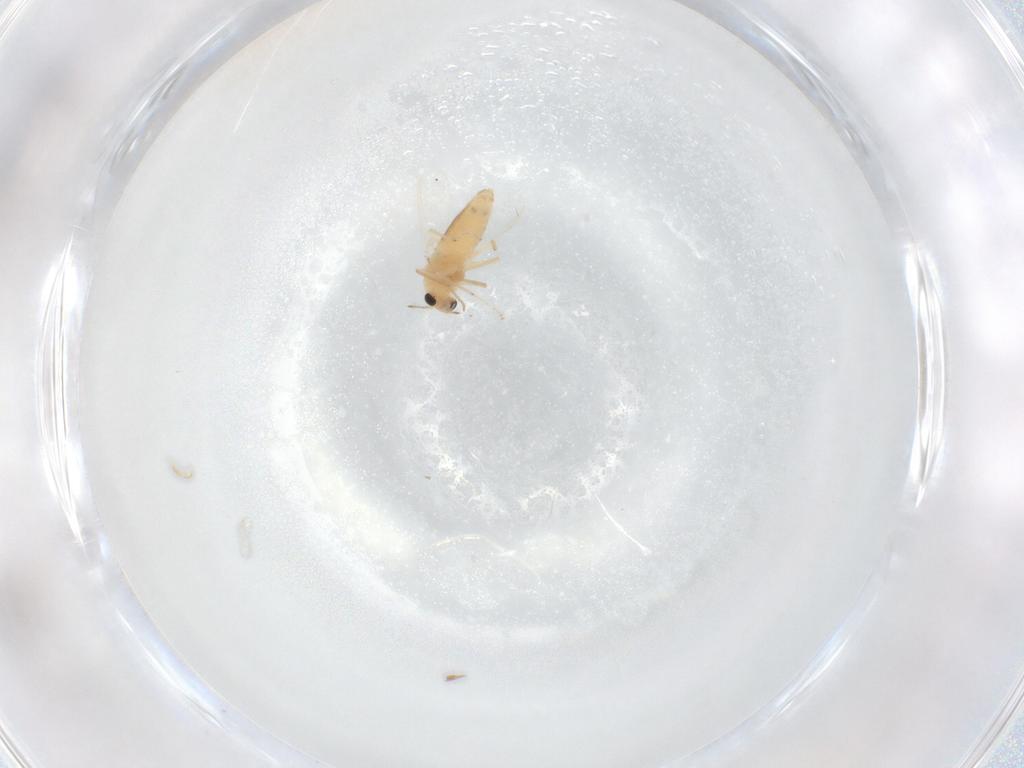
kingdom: Animalia
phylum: Arthropoda
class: Insecta
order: Diptera
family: Chironomidae
